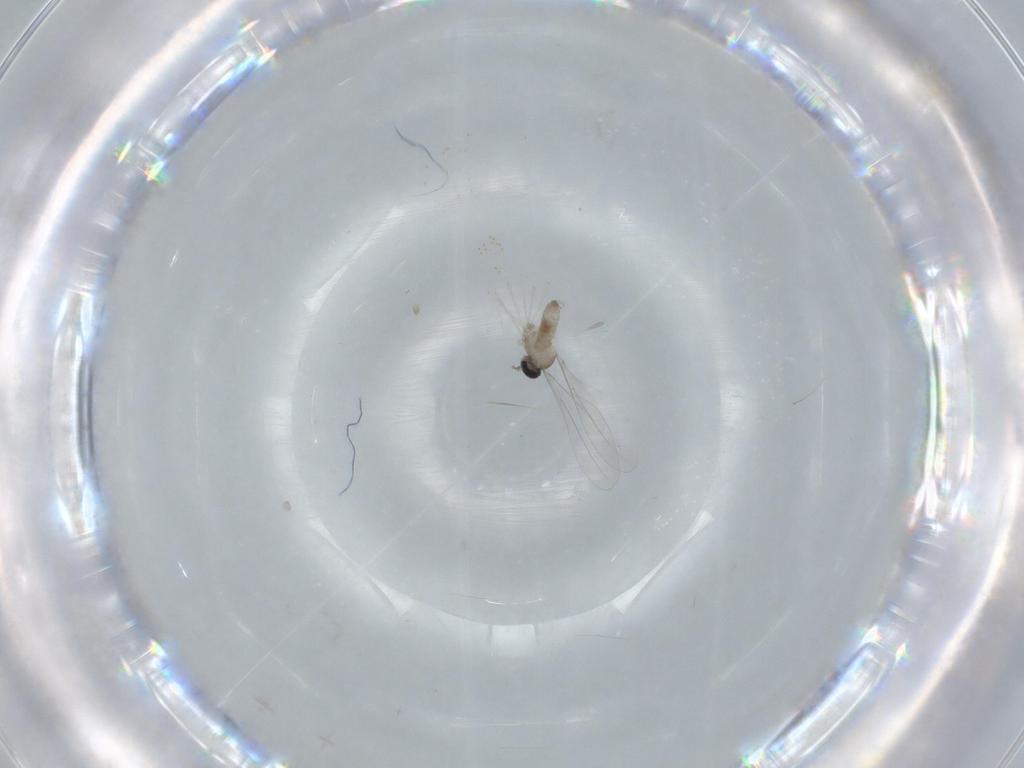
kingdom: Animalia
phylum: Arthropoda
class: Insecta
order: Diptera
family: Cecidomyiidae
